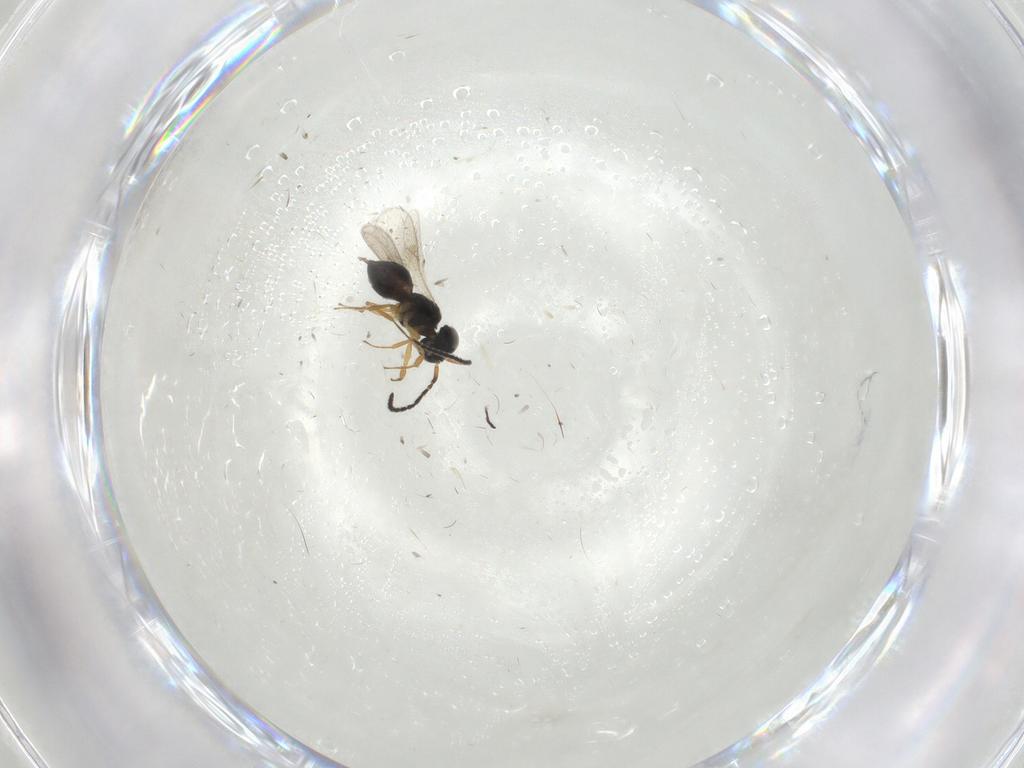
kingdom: Animalia
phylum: Arthropoda
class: Insecta
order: Hymenoptera
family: Scelionidae
